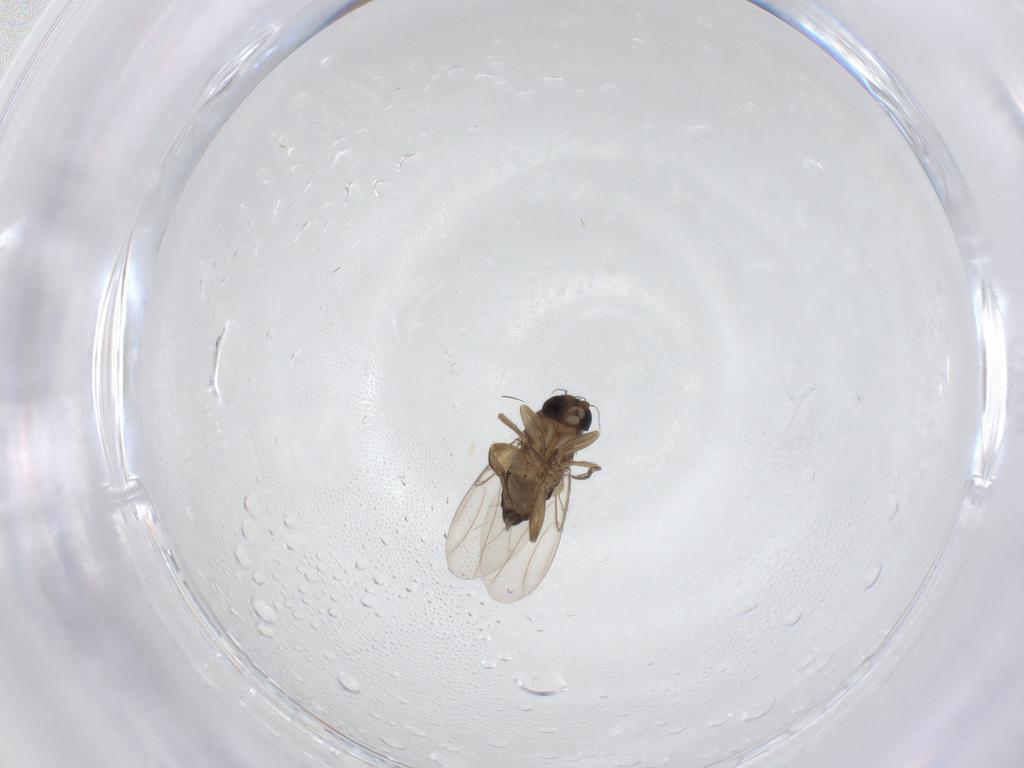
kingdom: Animalia
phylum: Arthropoda
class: Insecta
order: Diptera
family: Phoridae
